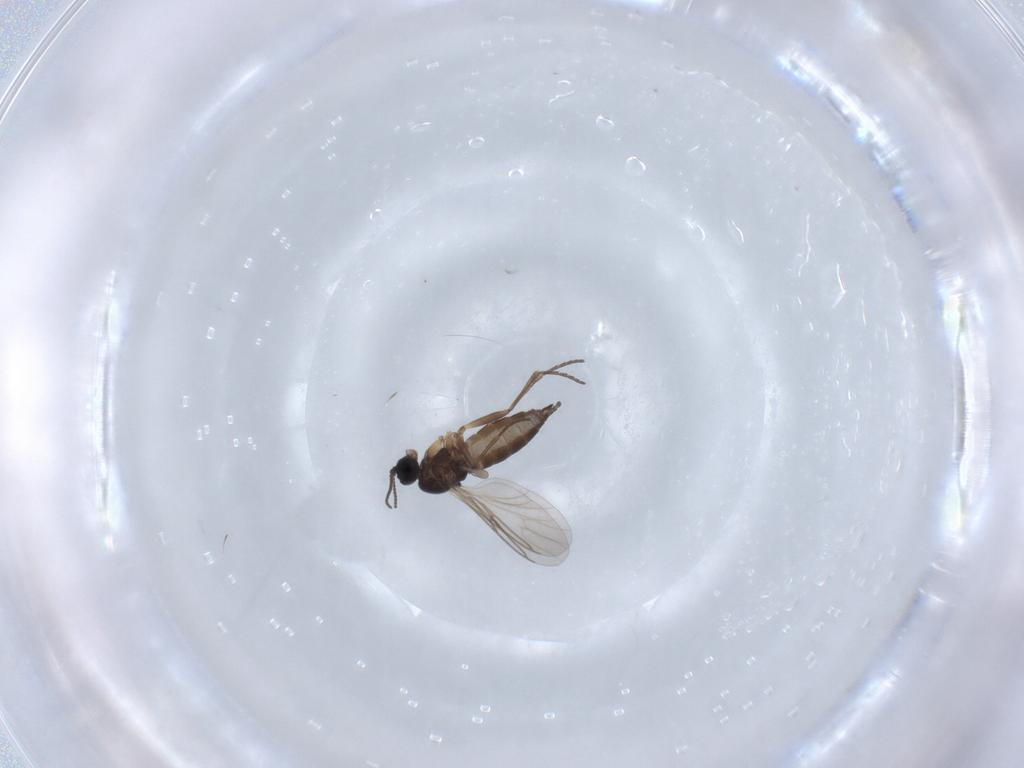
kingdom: Animalia
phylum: Arthropoda
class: Insecta
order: Diptera
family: Sciaridae
